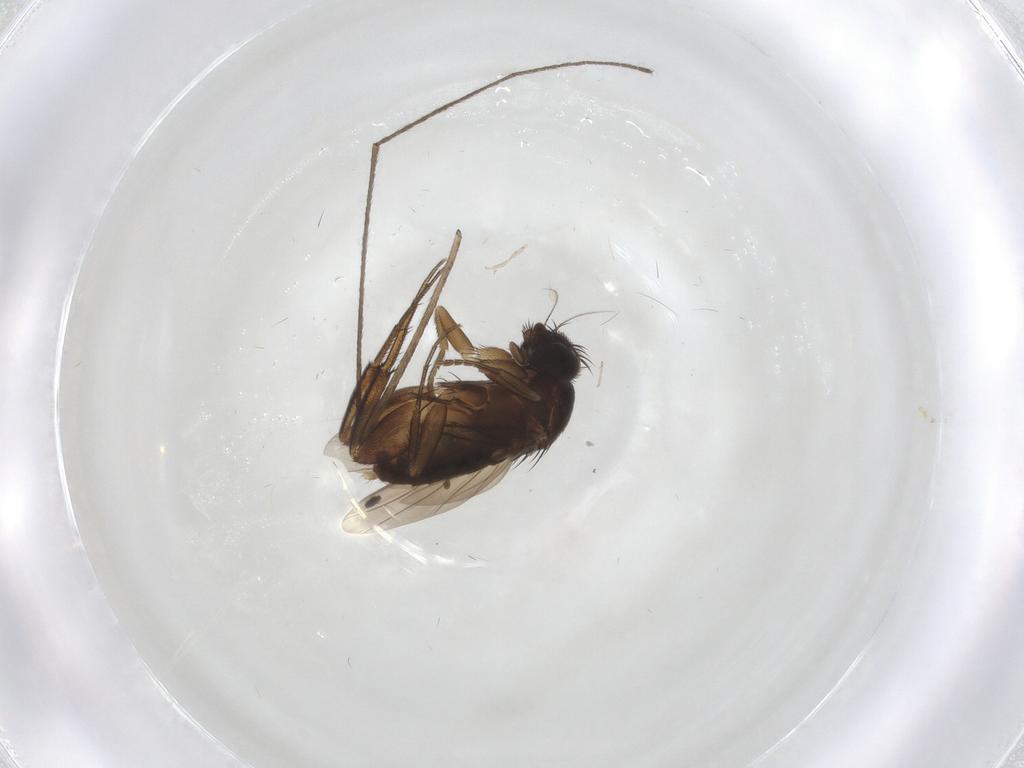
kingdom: Animalia
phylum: Arthropoda
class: Insecta
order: Diptera
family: Phoridae
